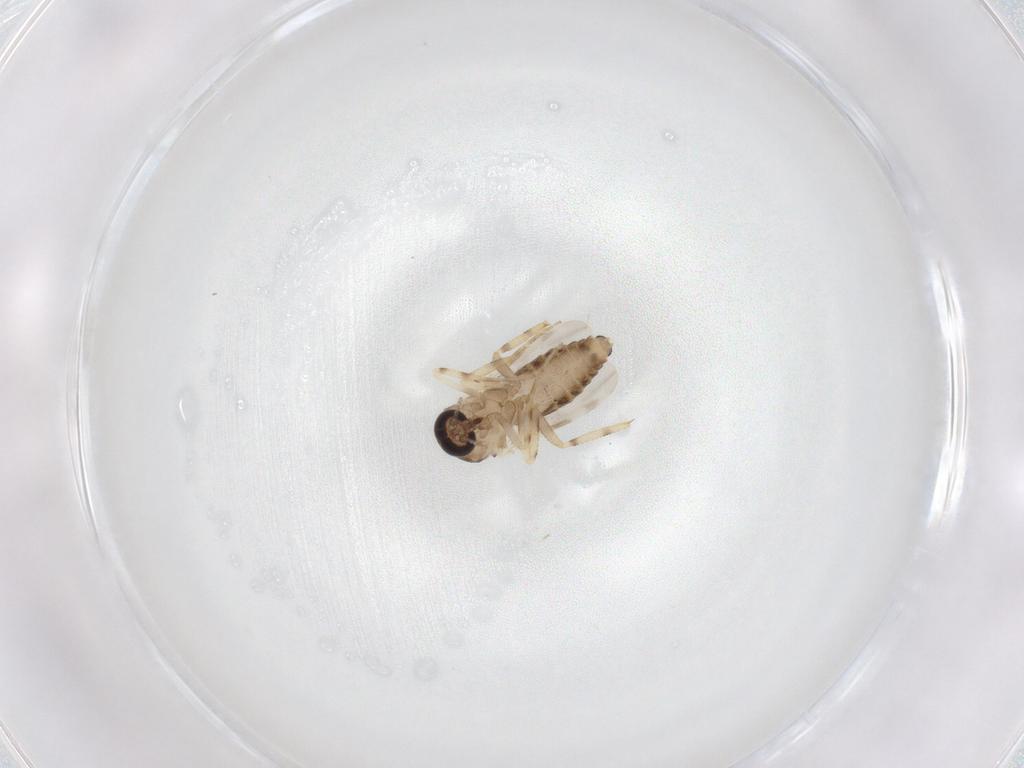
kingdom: Animalia
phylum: Arthropoda
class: Insecta
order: Diptera
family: Ceratopogonidae
